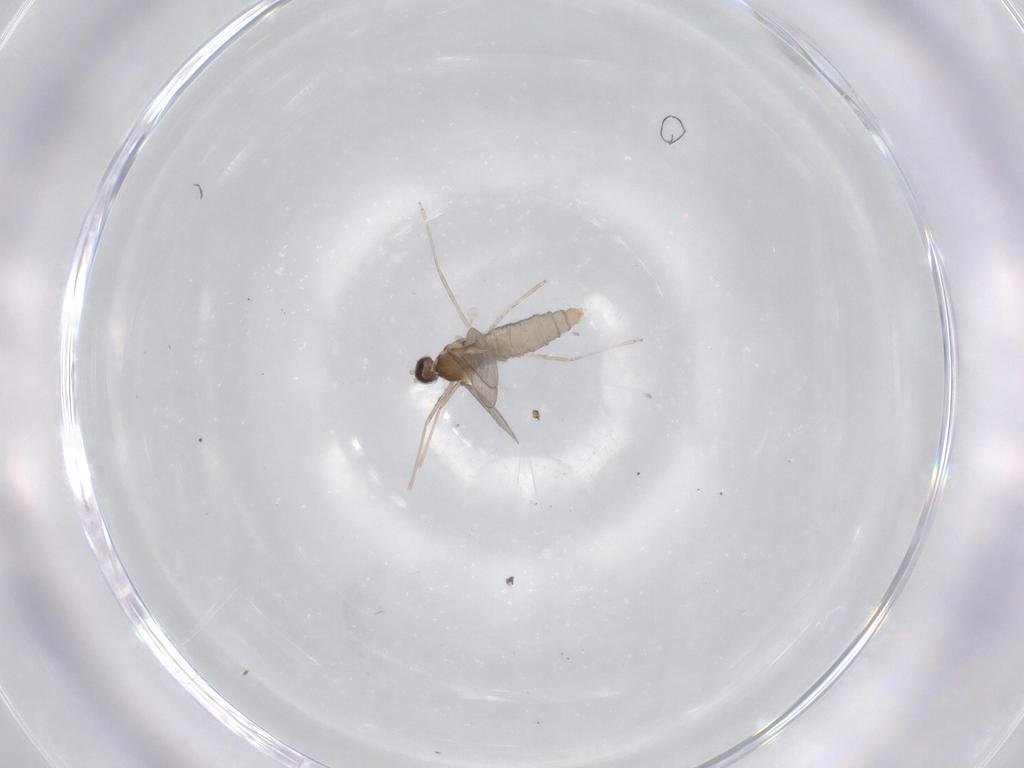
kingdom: Animalia
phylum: Arthropoda
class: Insecta
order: Diptera
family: Cecidomyiidae
